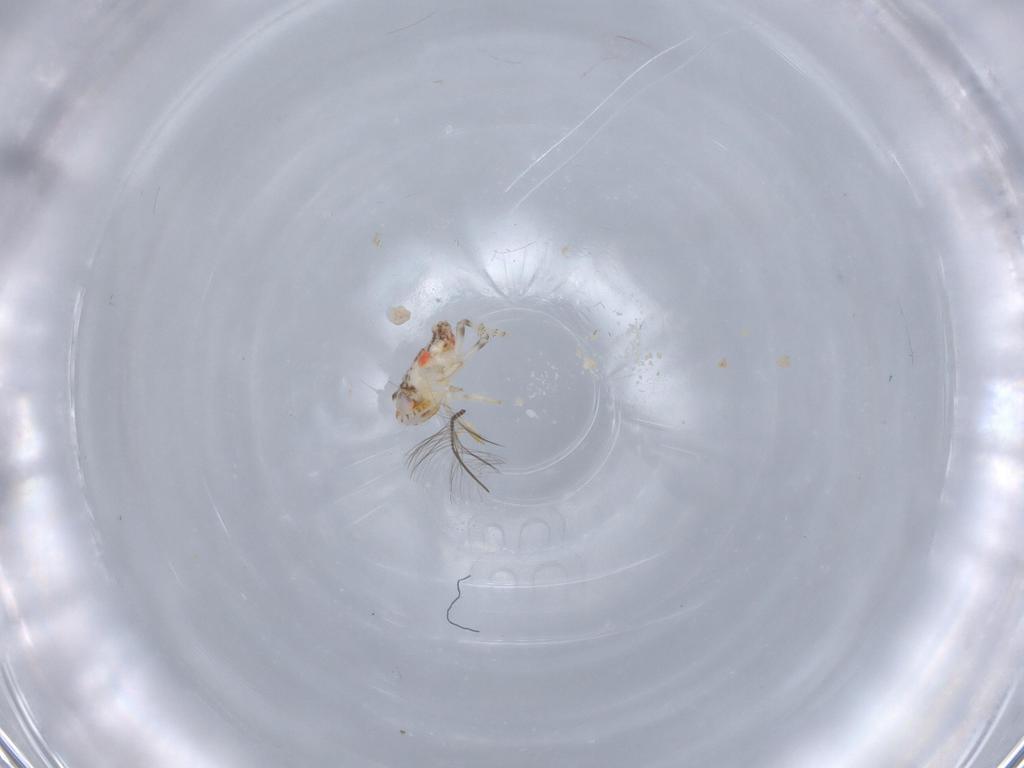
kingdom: Animalia
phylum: Arthropoda
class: Insecta
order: Hemiptera
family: Nogodinidae
